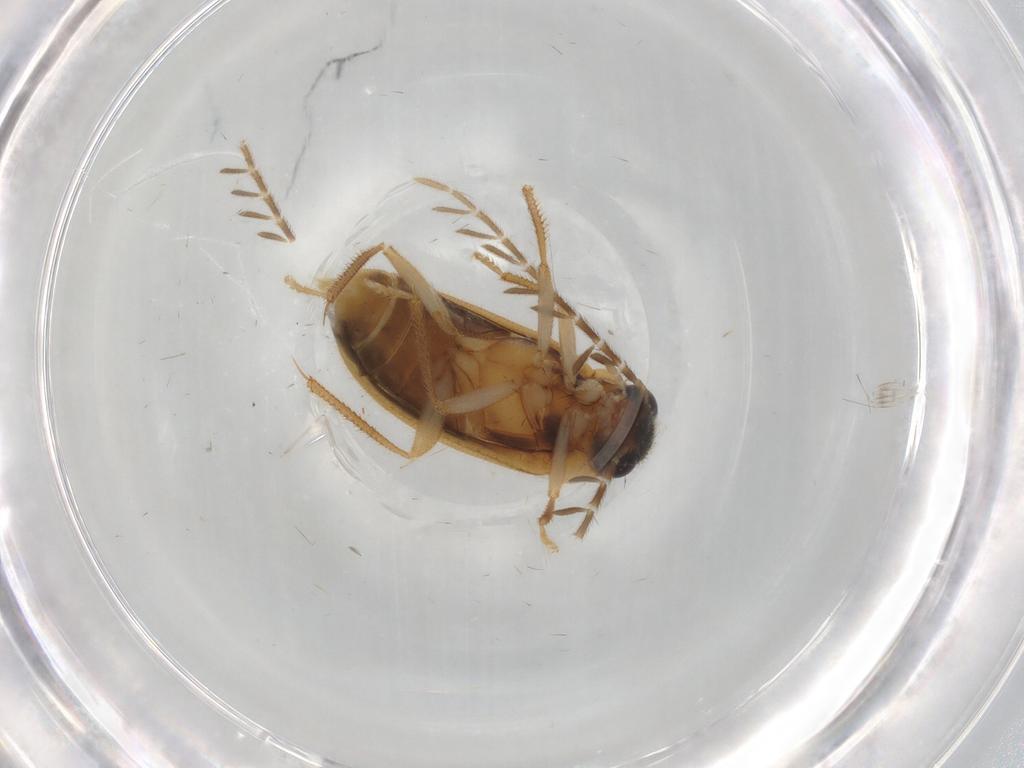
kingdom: Animalia
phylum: Arthropoda
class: Insecta
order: Coleoptera
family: Ptilodactylidae
